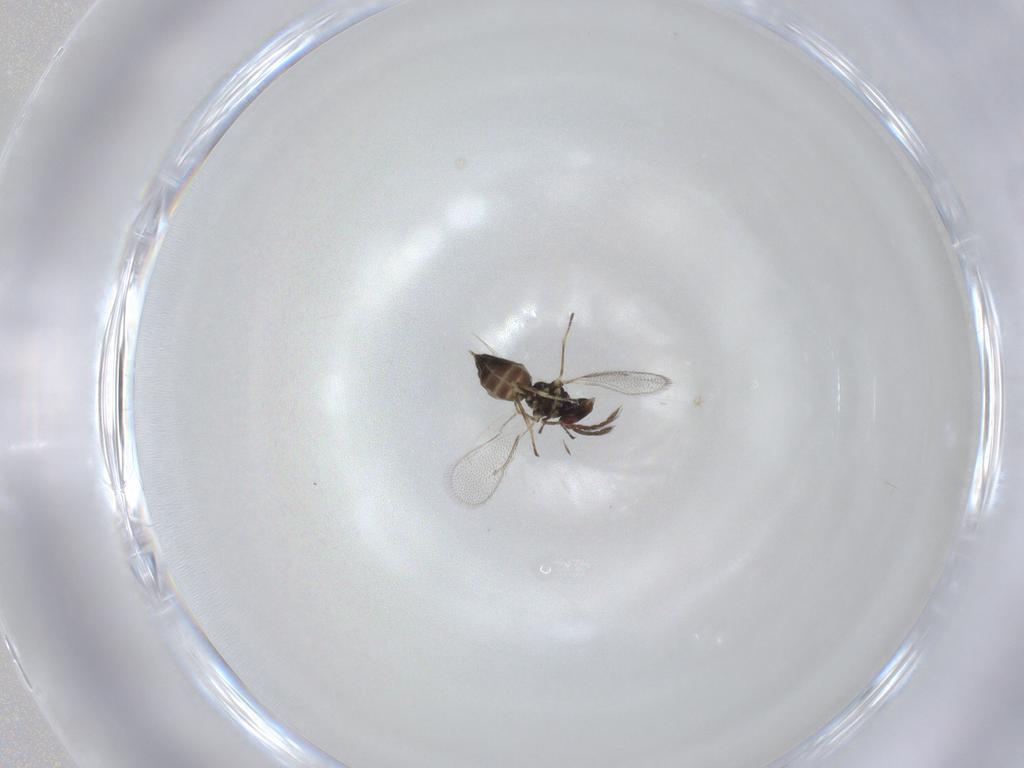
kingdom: Animalia
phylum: Arthropoda
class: Insecta
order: Hymenoptera
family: Eulophidae
